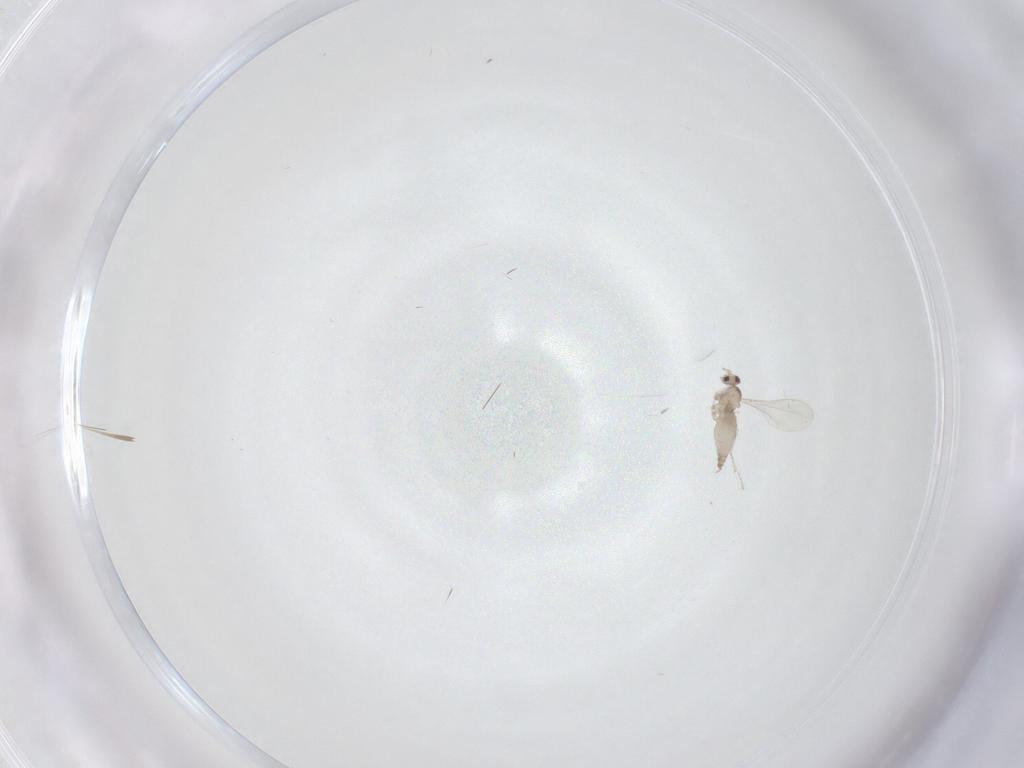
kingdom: Animalia
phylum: Arthropoda
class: Insecta
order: Diptera
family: Cecidomyiidae
